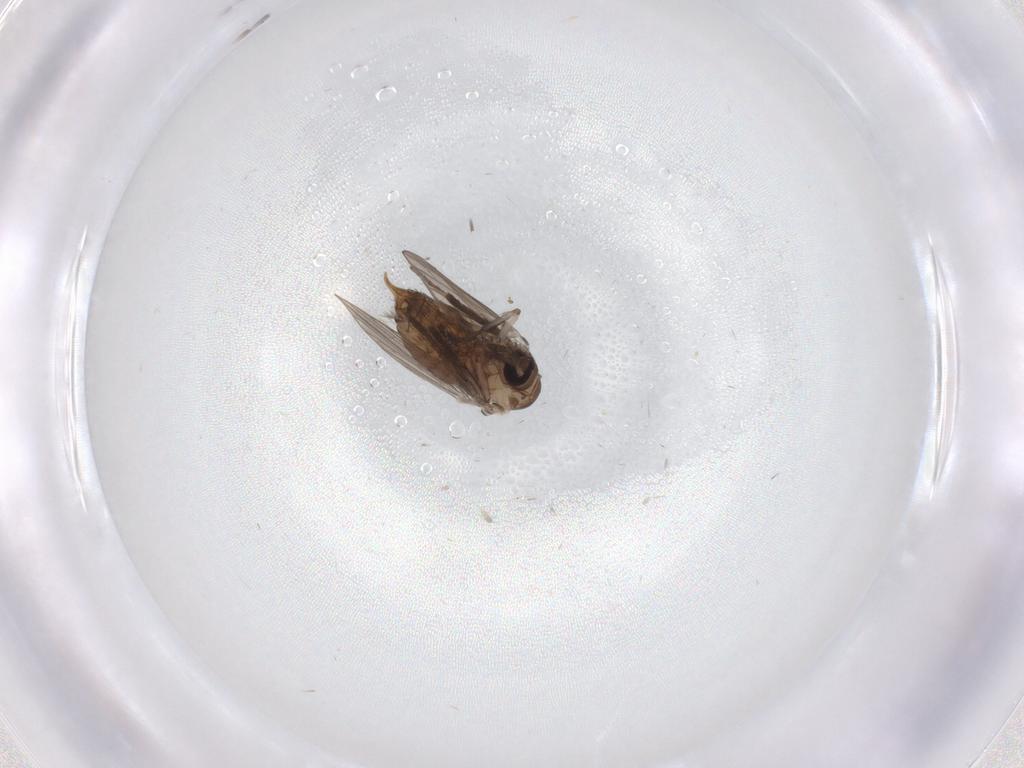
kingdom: Animalia
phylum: Arthropoda
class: Insecta
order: Diptera
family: Psychodidae
